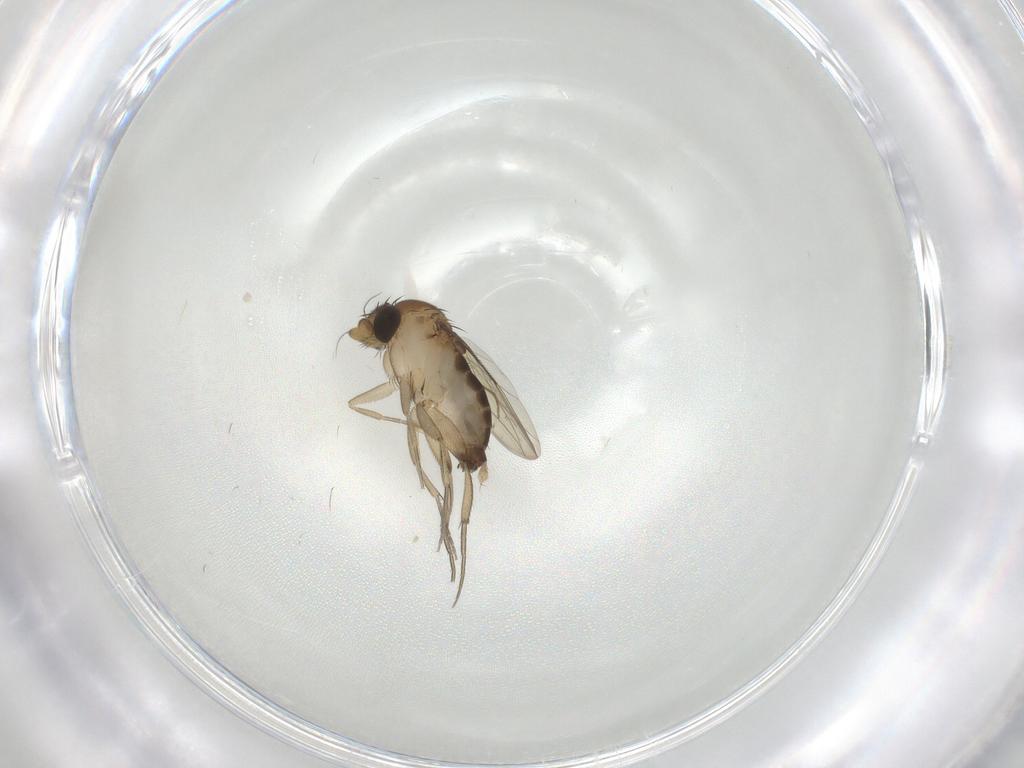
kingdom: Animalia
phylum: Arthropoda
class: Insecta
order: Diptera
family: Phoridae
